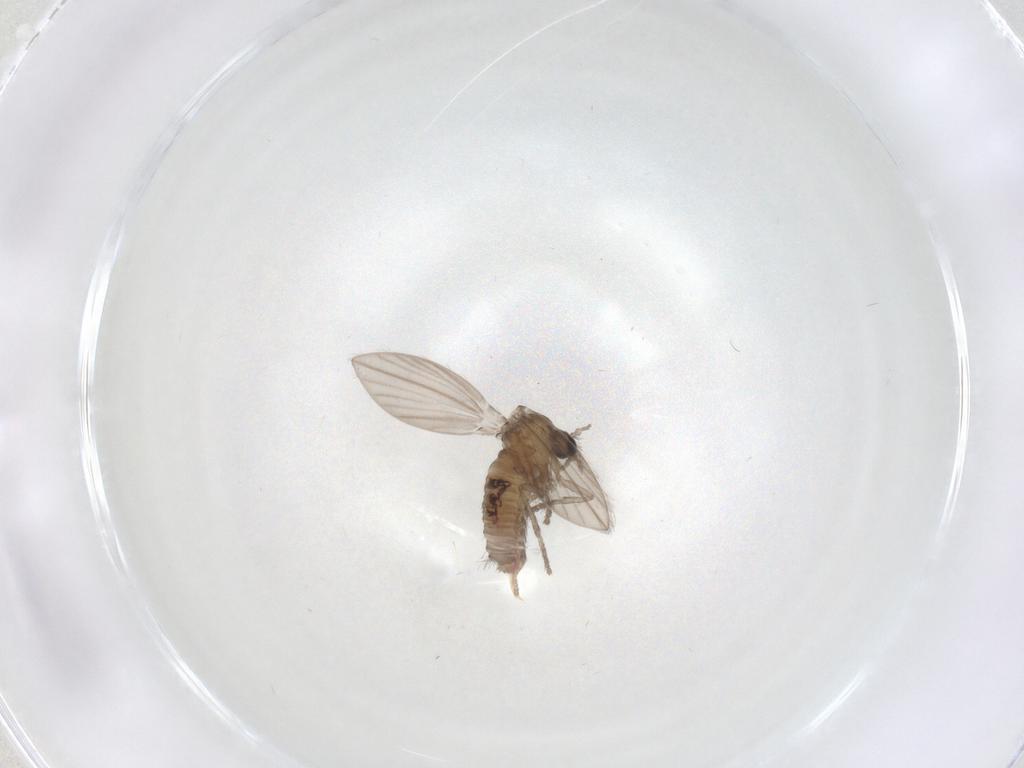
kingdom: Animalia
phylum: Arthropoda
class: Insecta
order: Diptera
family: Psychodidae
